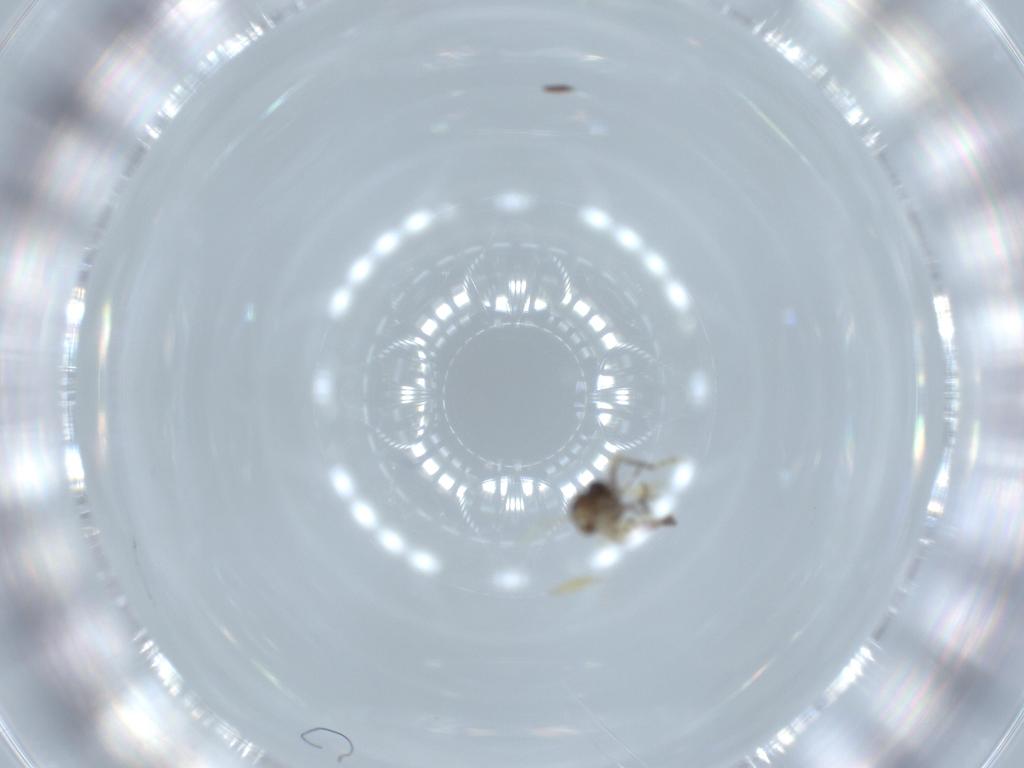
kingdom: Animalia
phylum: Arthropoda
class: Insecta
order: Diptera
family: Ceratopogonidae
